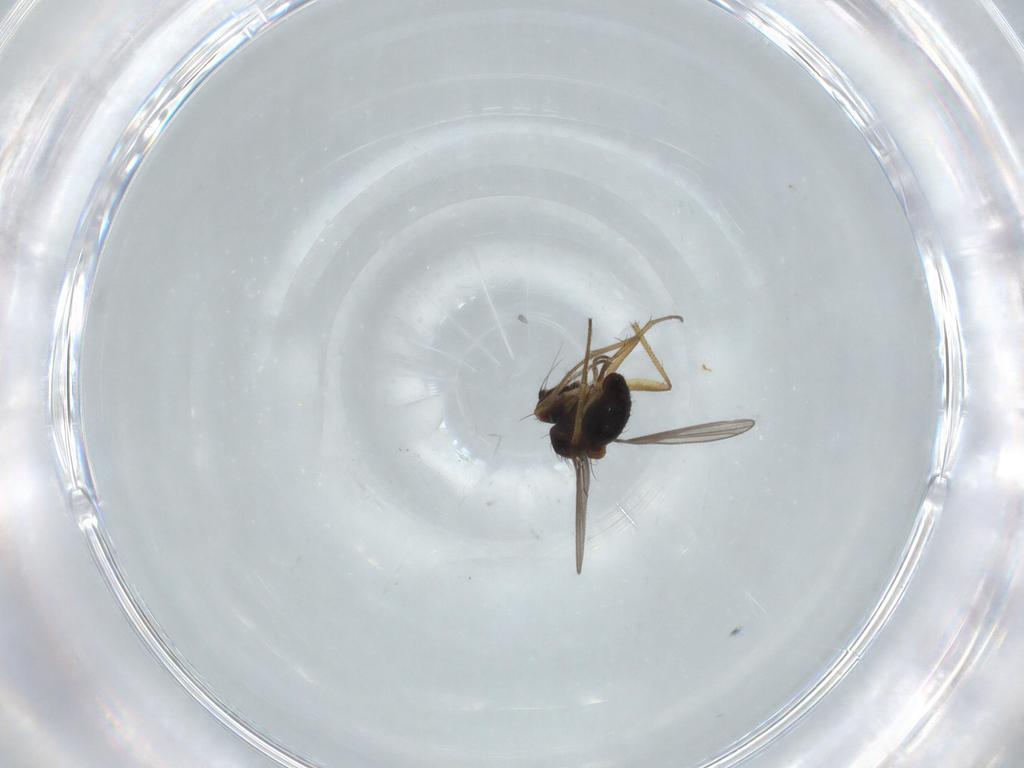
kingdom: Animalia
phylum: Arthropoda
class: Insecta
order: Diptera
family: Dolichopodidae
